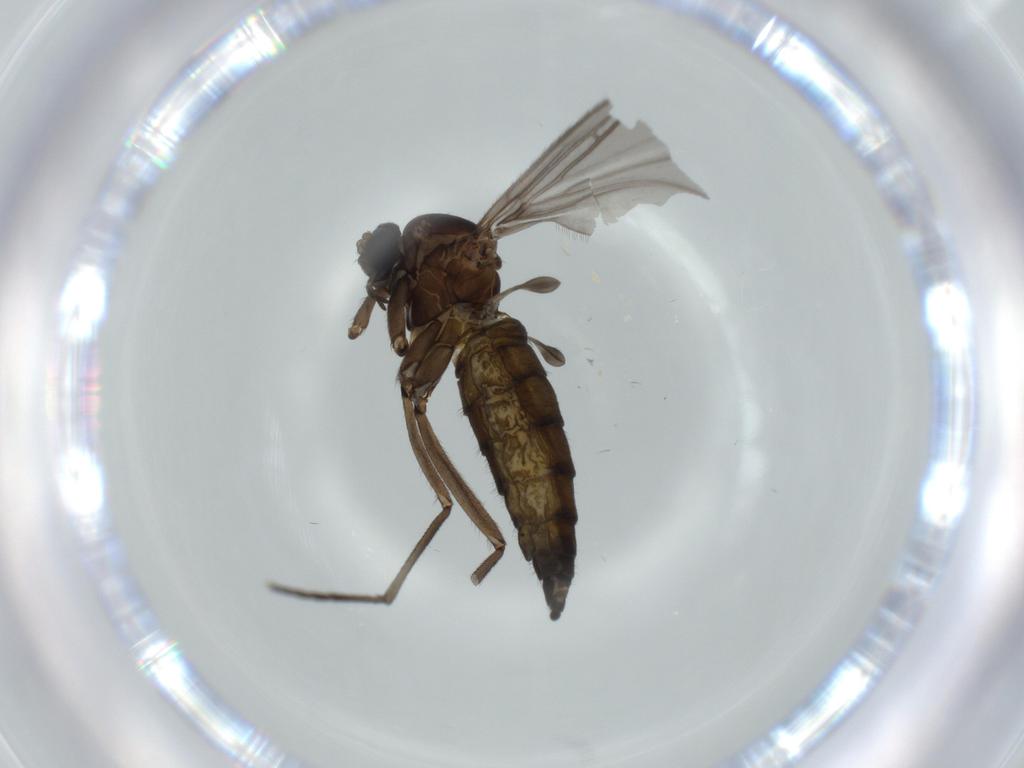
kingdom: Animalia
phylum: Arthropoda
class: Insecta
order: Diptera
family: Sciaridae
